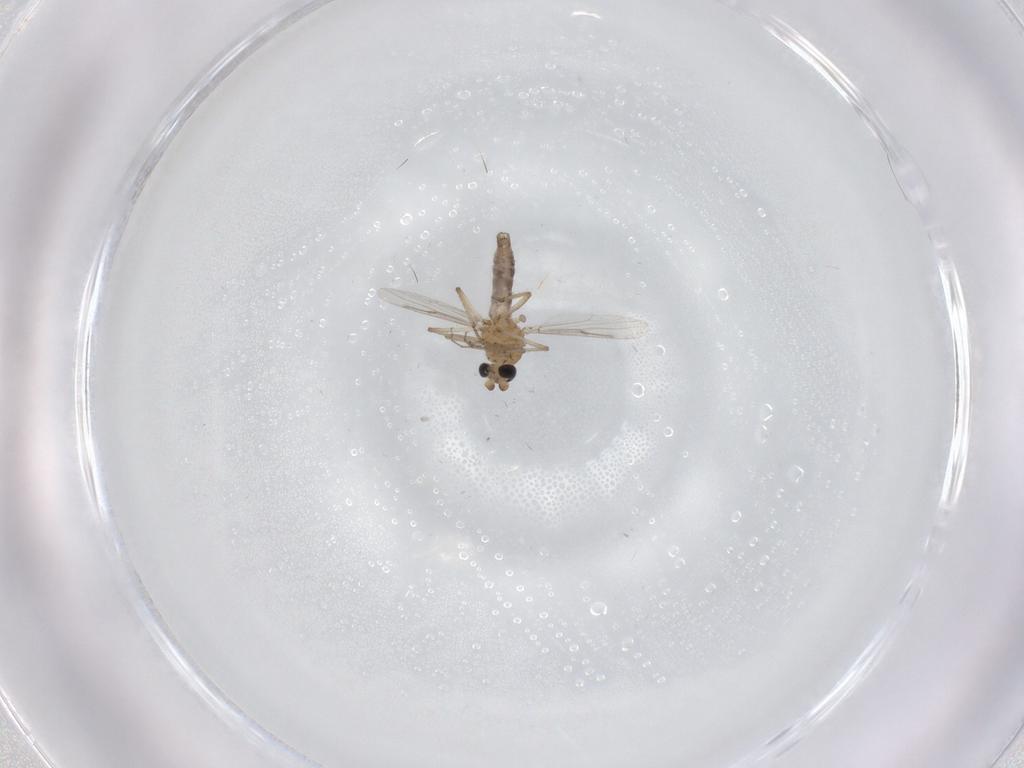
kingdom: Animalia
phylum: Arthropoda
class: Insecta
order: Diptera
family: Ceratopogonidae
